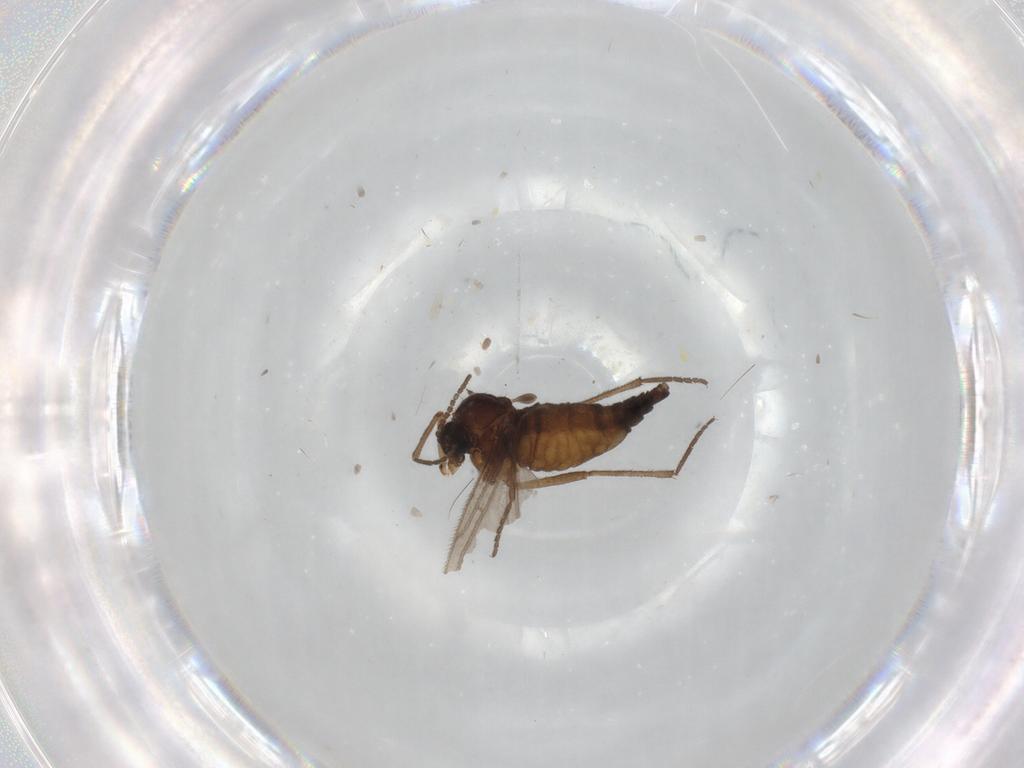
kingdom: Animalia
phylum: Arthropoda
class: Insecta
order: Diptera
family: Sciaridae
